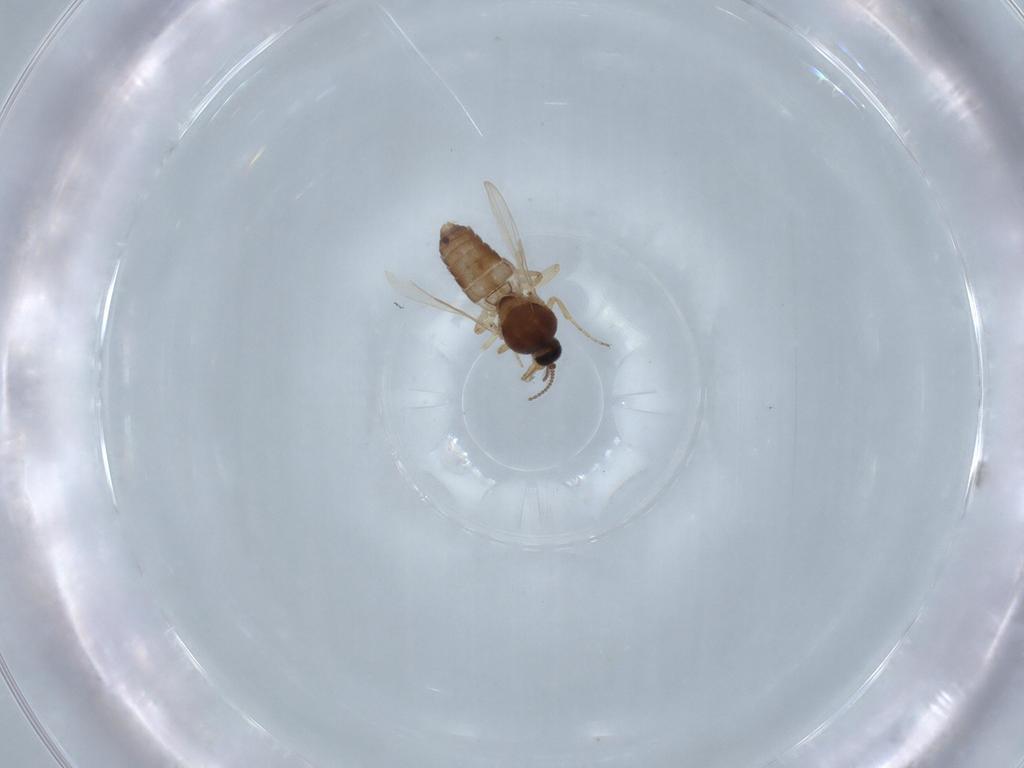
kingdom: Animalia
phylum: Arthropoda
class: Insecta
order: Diptera
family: Ceratopogonidae
